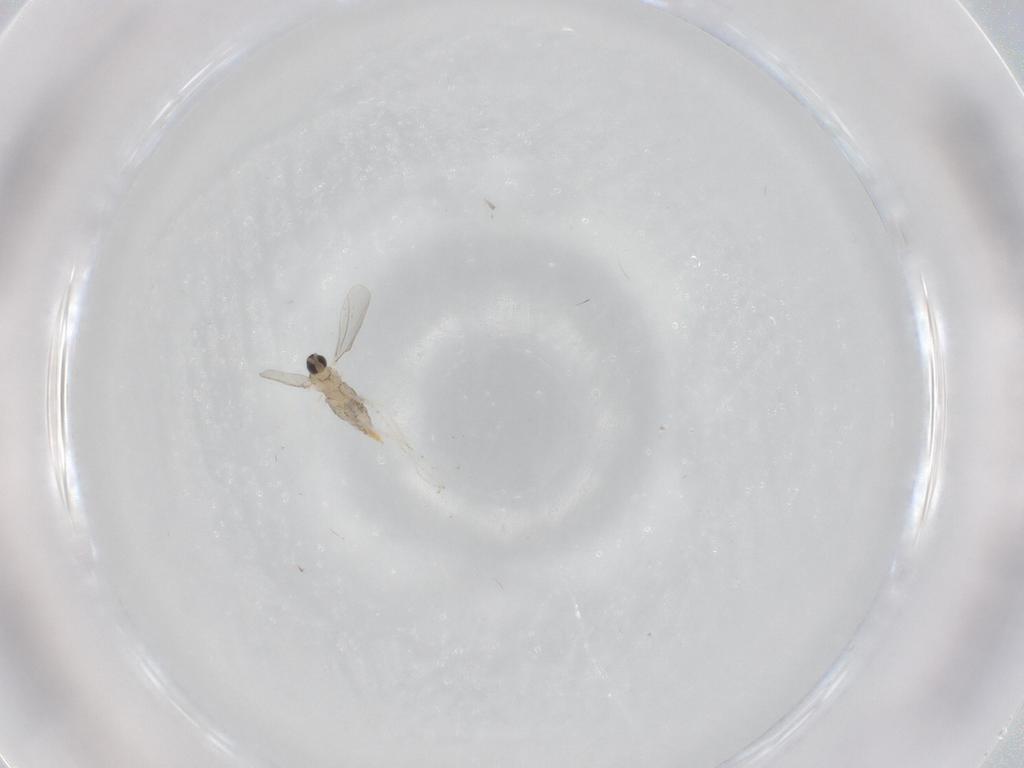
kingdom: Animalia
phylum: Arthropoda
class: Insecta
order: Diptera
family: Cecidomyiidae
